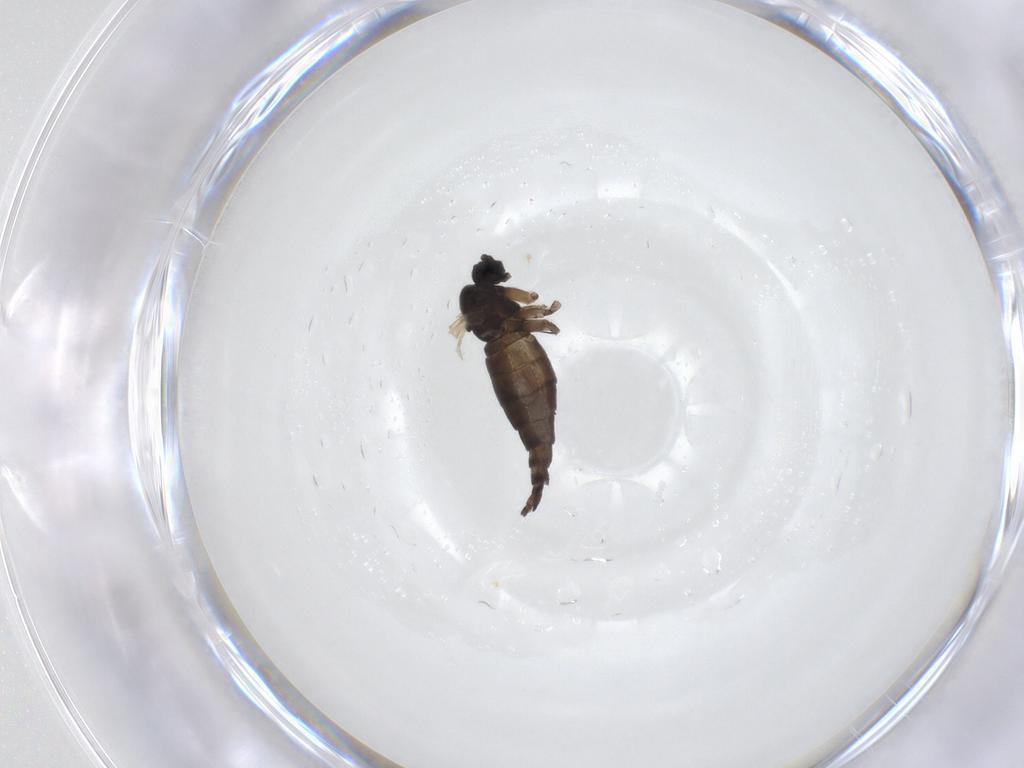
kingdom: Animalia
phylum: Arthropoda
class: Insecta
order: Diptera
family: Sciaridae
